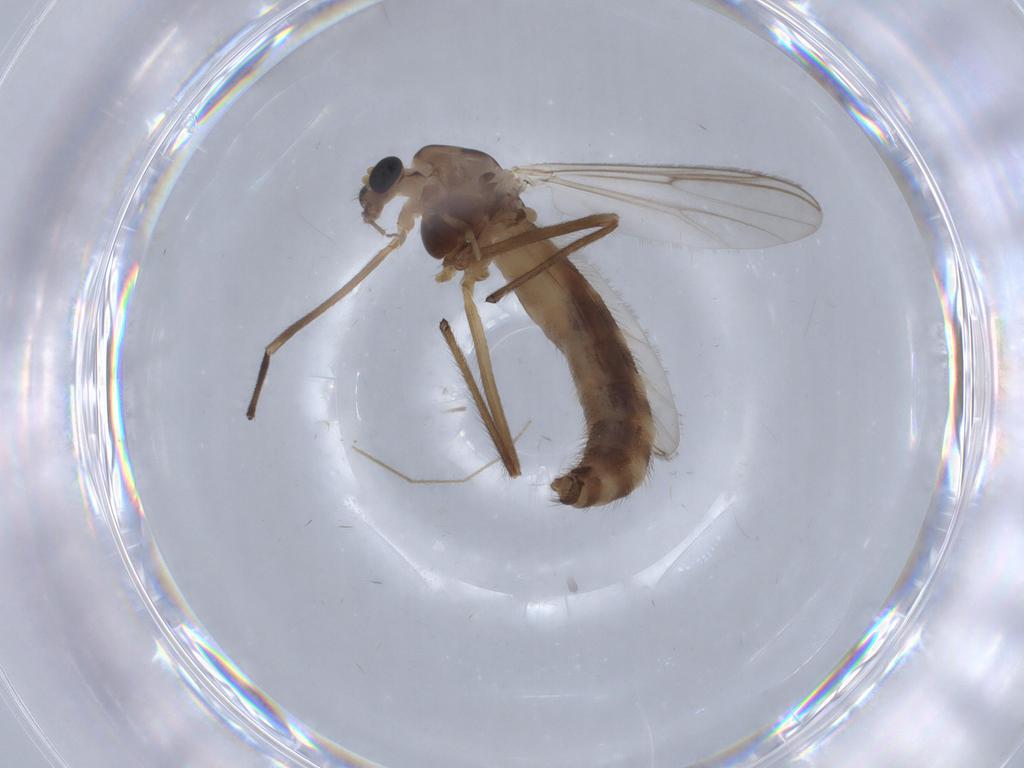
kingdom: Animalia
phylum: Arthropoda
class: Insecta
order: Diptera
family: Chironomidae
